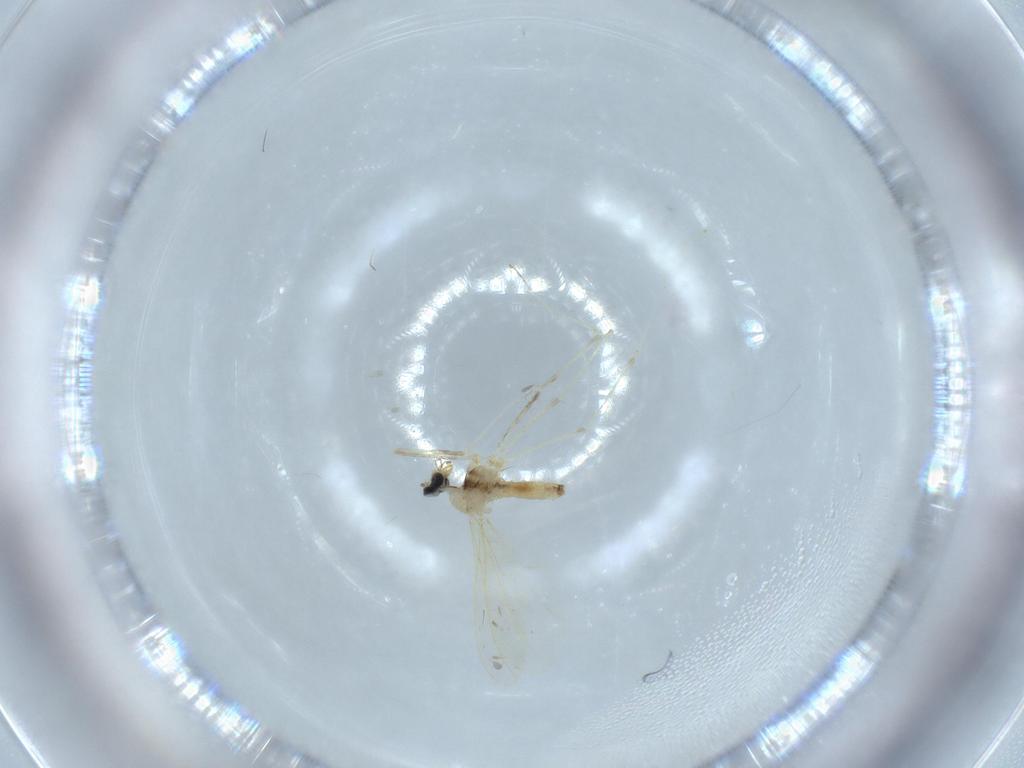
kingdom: Animalia
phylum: Arthropoda
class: Insecta
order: Diptera
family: Cecidomyiidae
